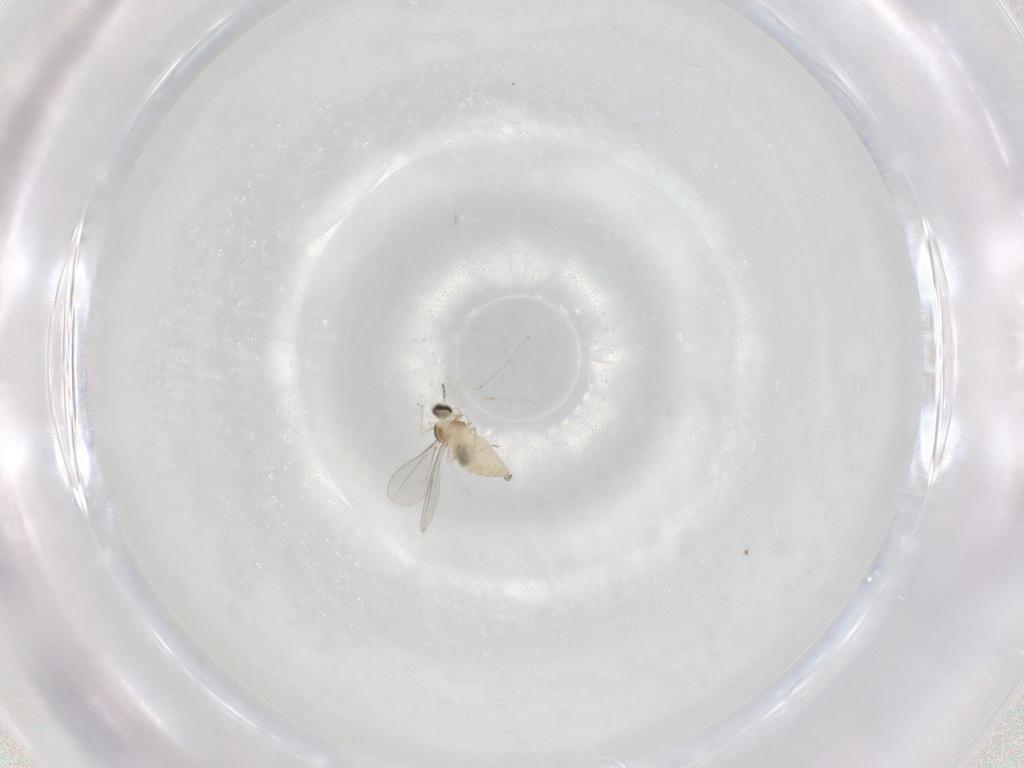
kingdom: Animalia
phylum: Arthropoda
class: Insecta
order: Diptera
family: Cecidomyiidae
